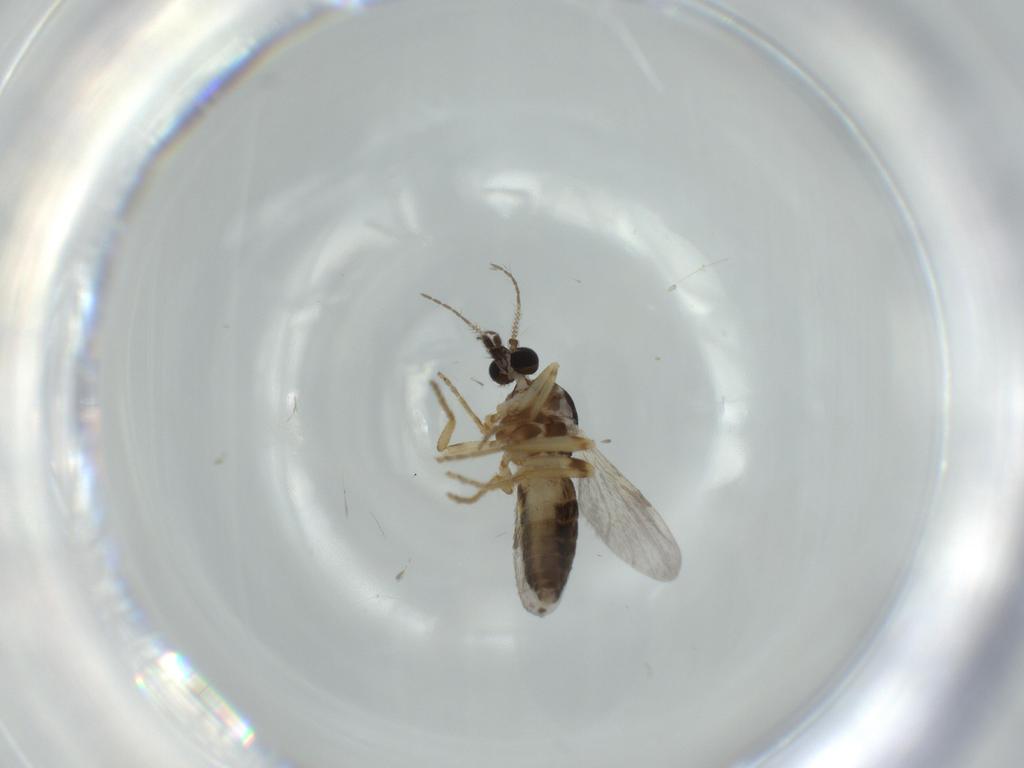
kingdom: Animalia
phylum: Arthropoda
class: Insecta
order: Diptera
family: Ceratopogonidae
